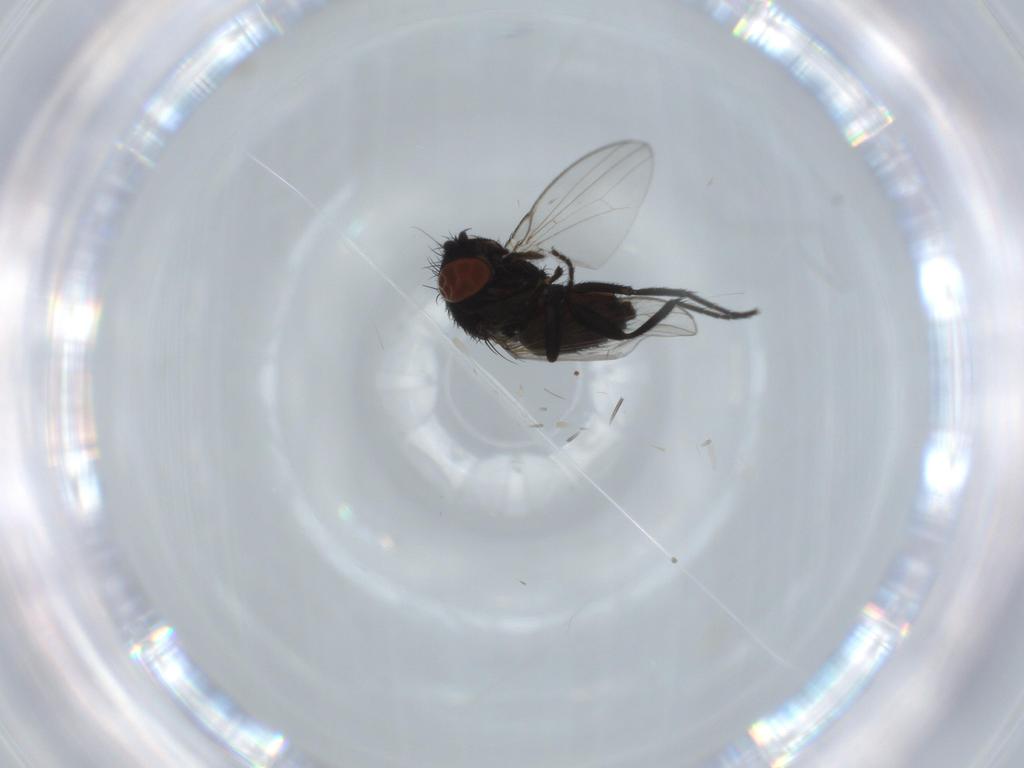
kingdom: Animalia
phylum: Arthropoda
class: Insecta
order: Diptera
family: Milichiidae
